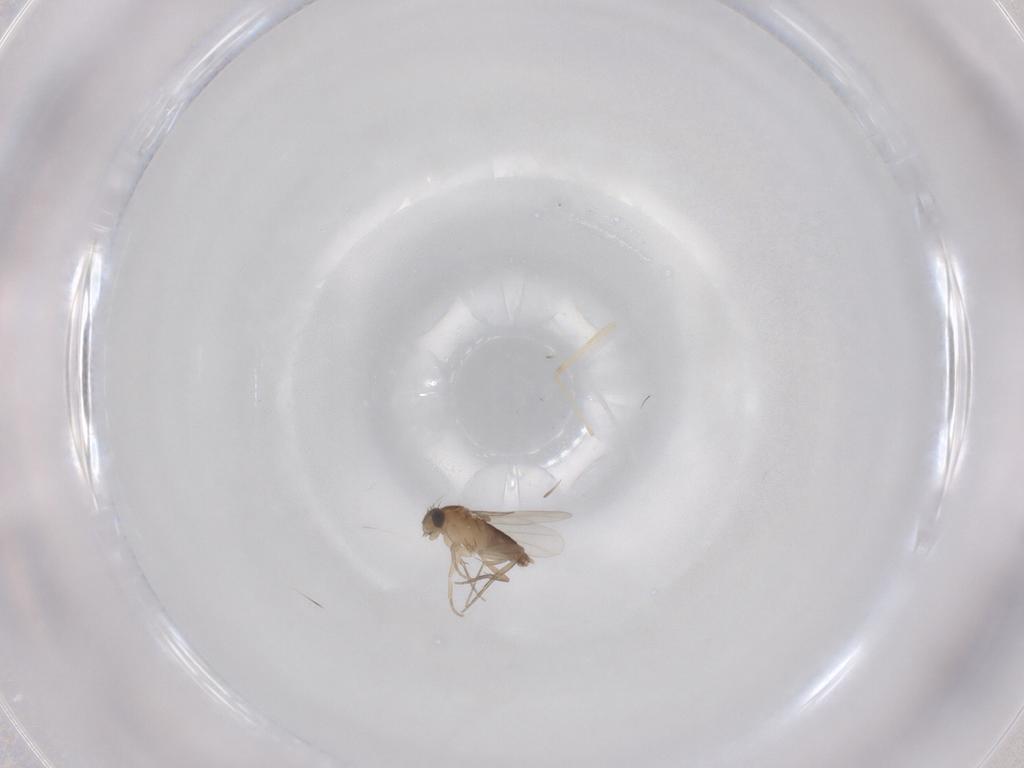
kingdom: Animalia
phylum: Arthropoda
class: Insecta
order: Diptera
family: Phoridae
